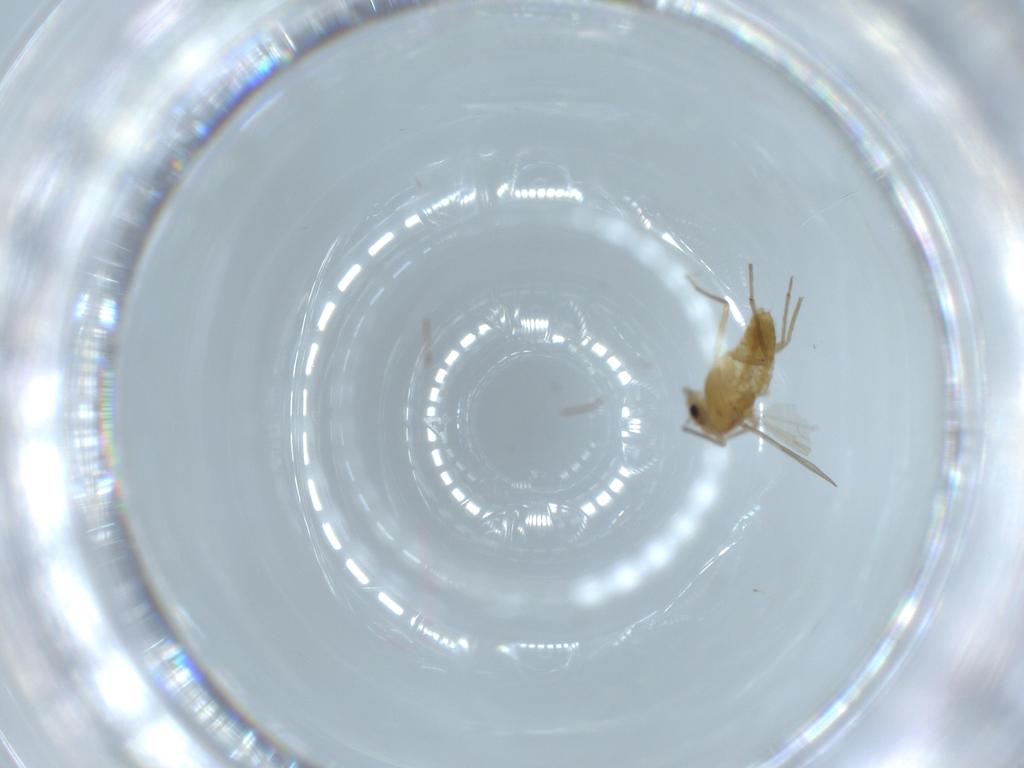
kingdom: Animalia
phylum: Arthropoda
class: Insecta
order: Diptera
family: Chironomidae
